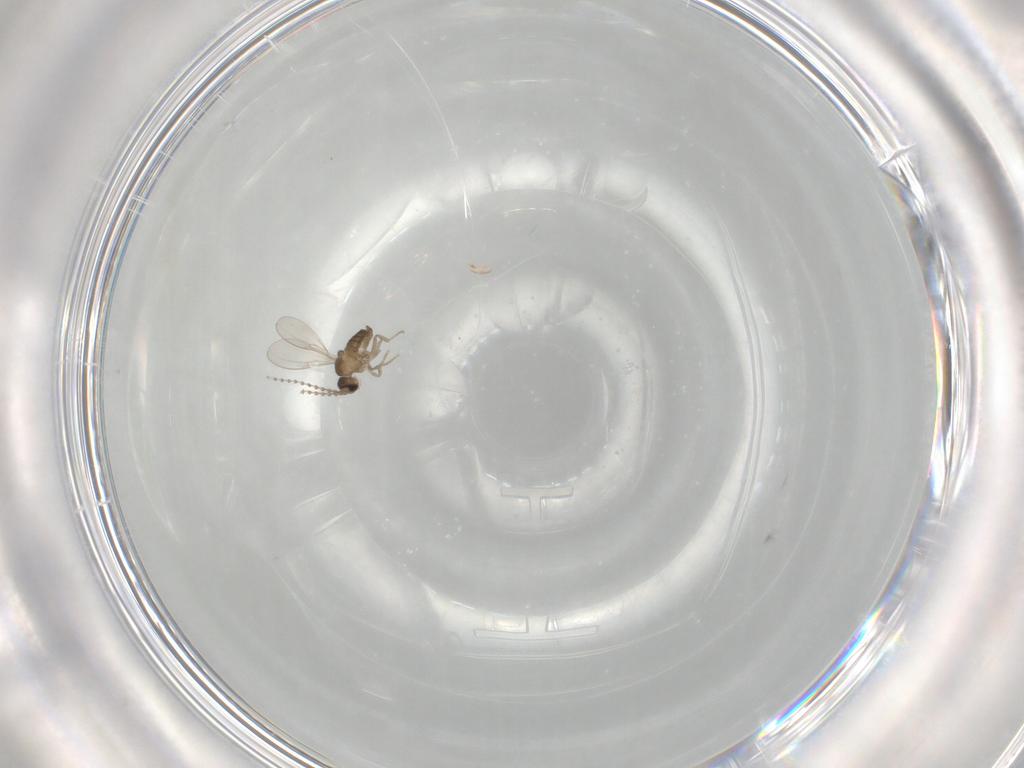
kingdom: Animalia
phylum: Arthropoda
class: Insecta
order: Diptera
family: Cecidomyiidae
